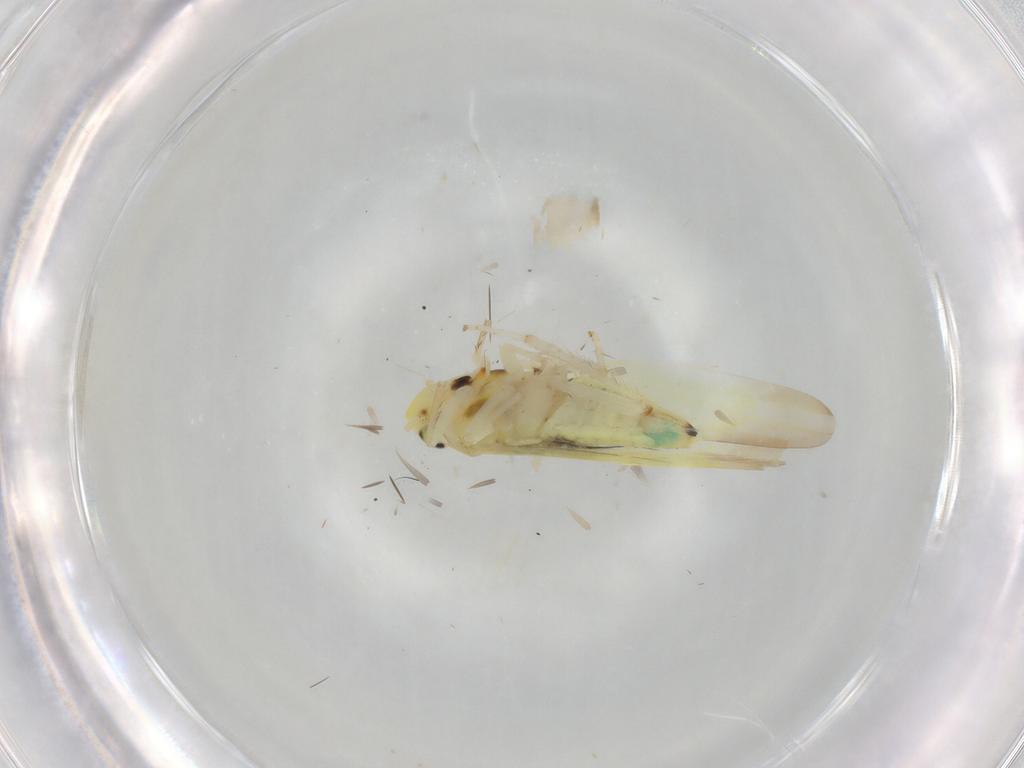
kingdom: Animalia
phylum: Arthropoda
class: Insecta
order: Hemiptera
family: Cicadellidae
